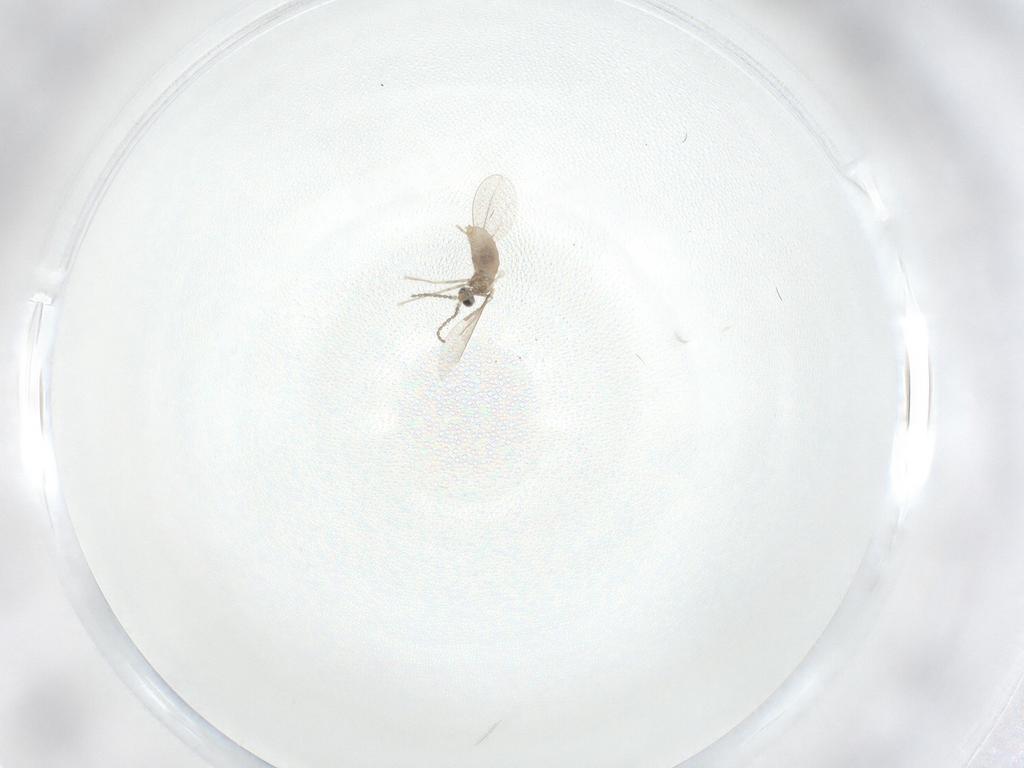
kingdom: Animalia
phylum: Arthropoda
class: Insecta
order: Diptera
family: Cecidomyiidae
